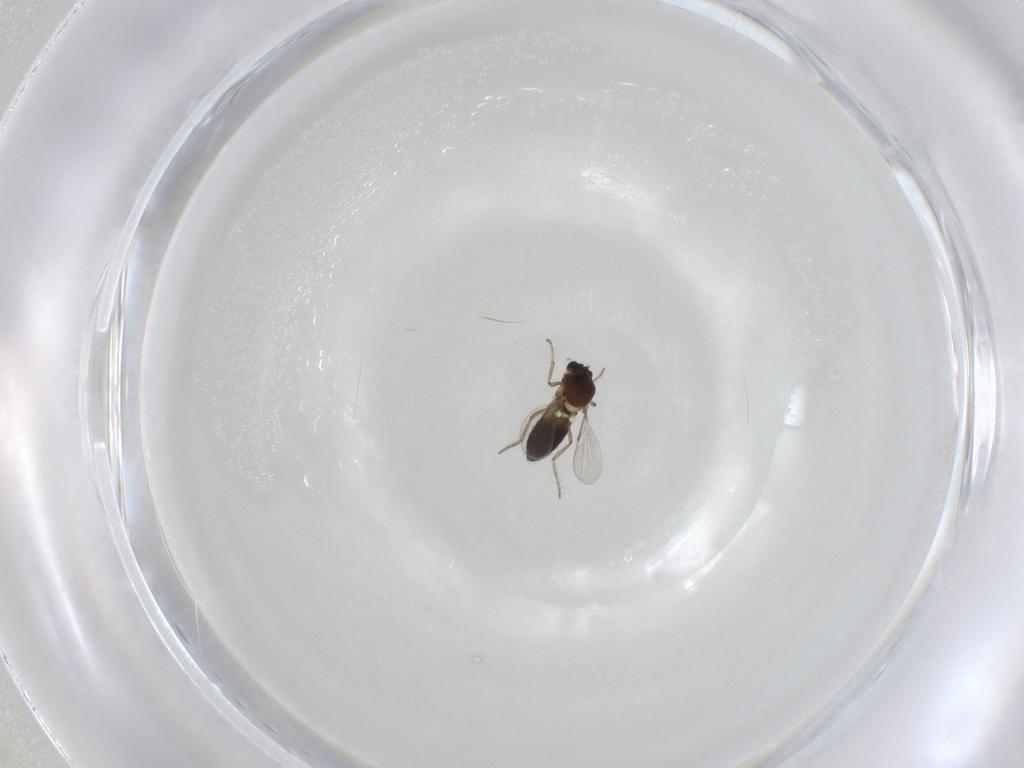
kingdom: Animalia
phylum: Arthropoda
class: Insecta
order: Diptera
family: Ceratopogonidae
